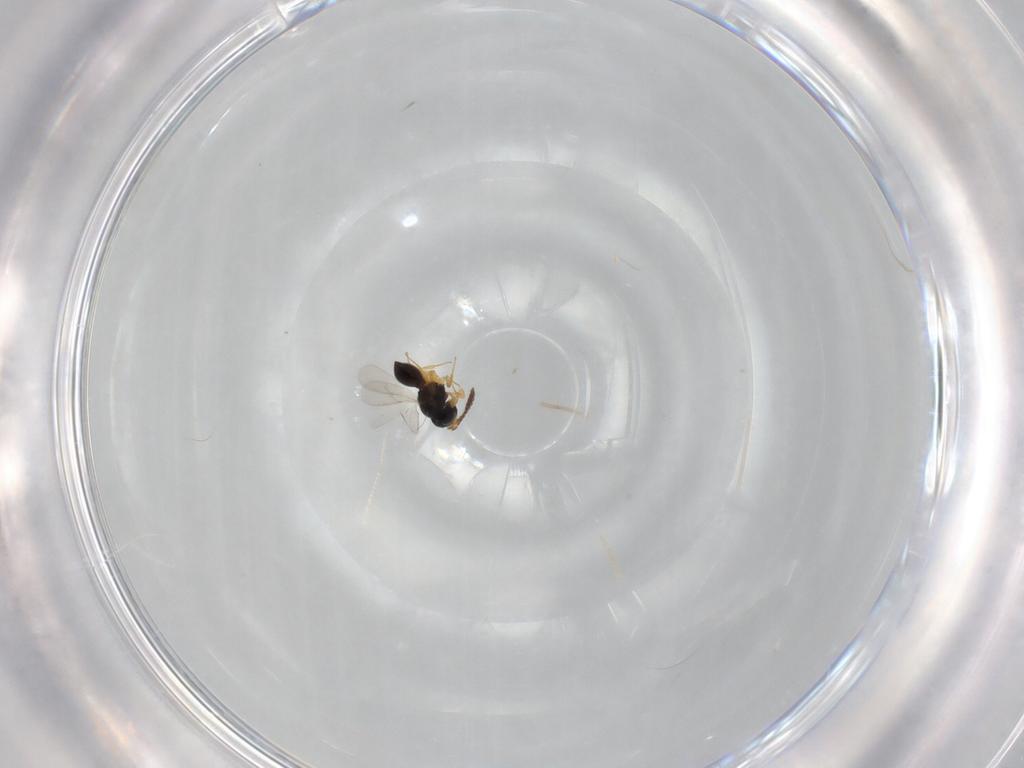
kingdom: Animalia
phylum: Arthropoda
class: Insecta
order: Hymenoptera
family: Scelionidae
